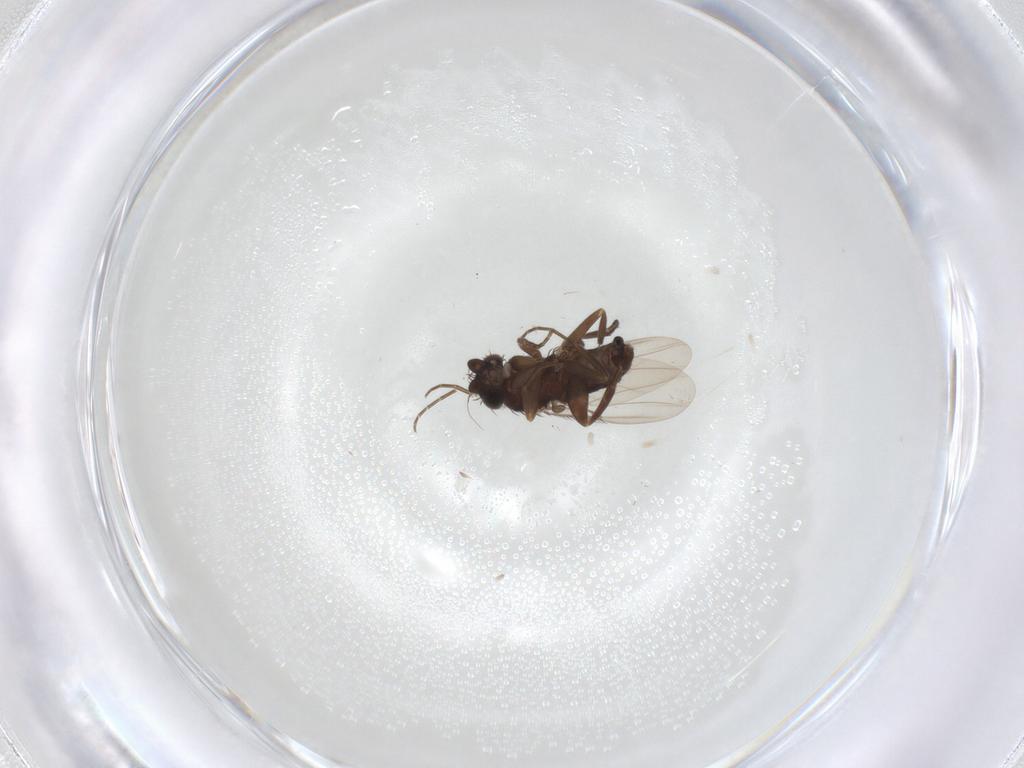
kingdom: Animalia
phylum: Arthropoda
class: Insecta
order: Diptera
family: Phoridae
